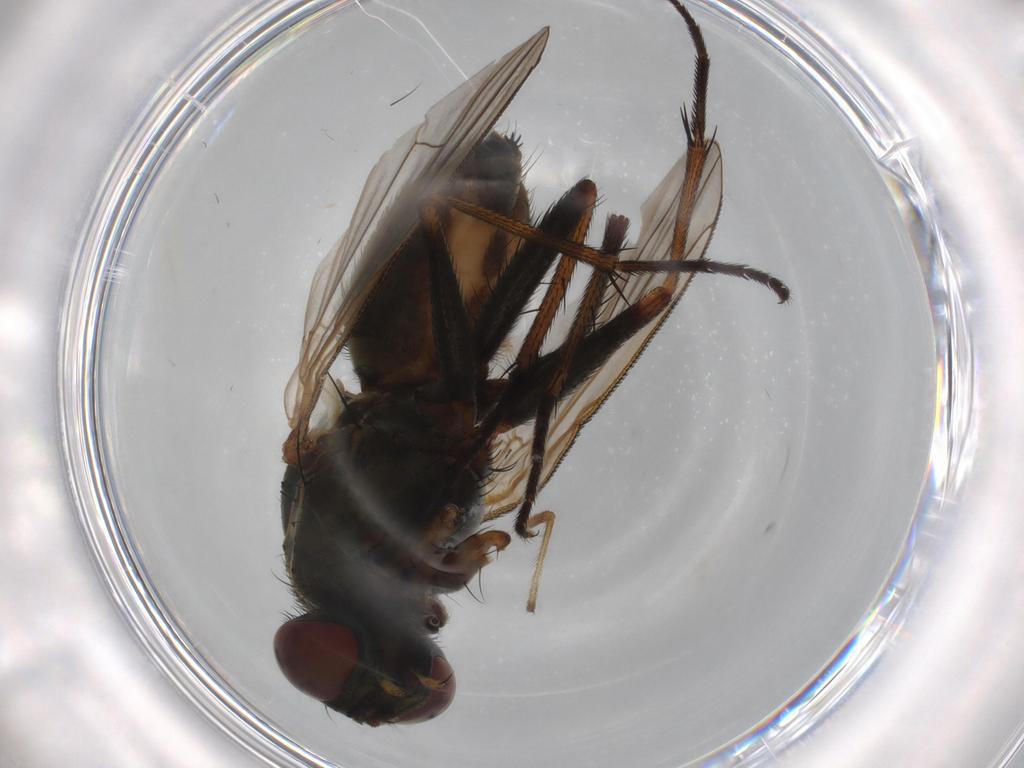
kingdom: Animalia
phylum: Arthropoda
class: Insecta
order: Diptera
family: Muscidae
